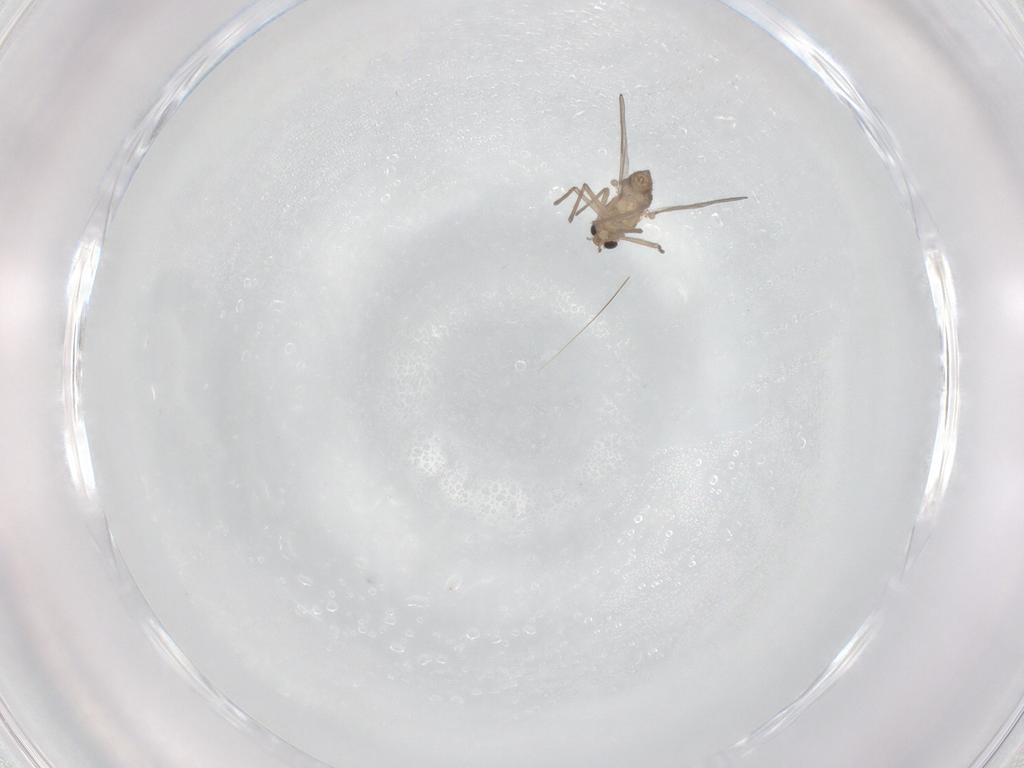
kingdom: Animalia
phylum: Arthropoda
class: Insecta
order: Diptera
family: Chironomidae
